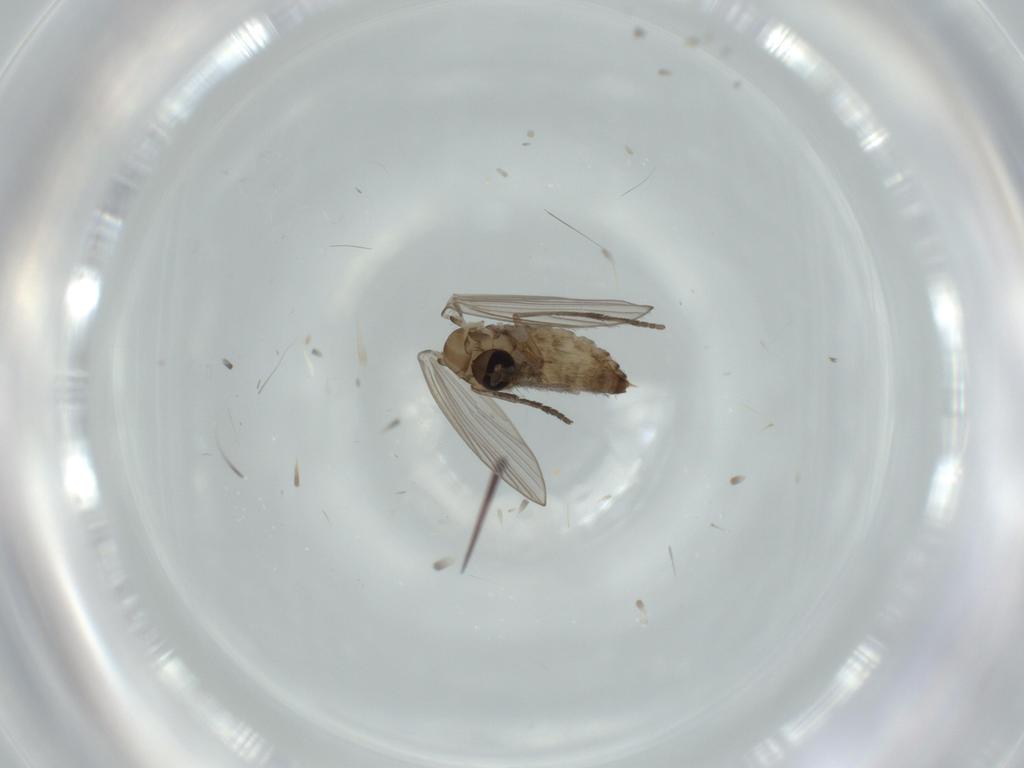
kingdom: Animalia
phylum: Arthropoda
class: Insecta
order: Diptera
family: Psychodidae
